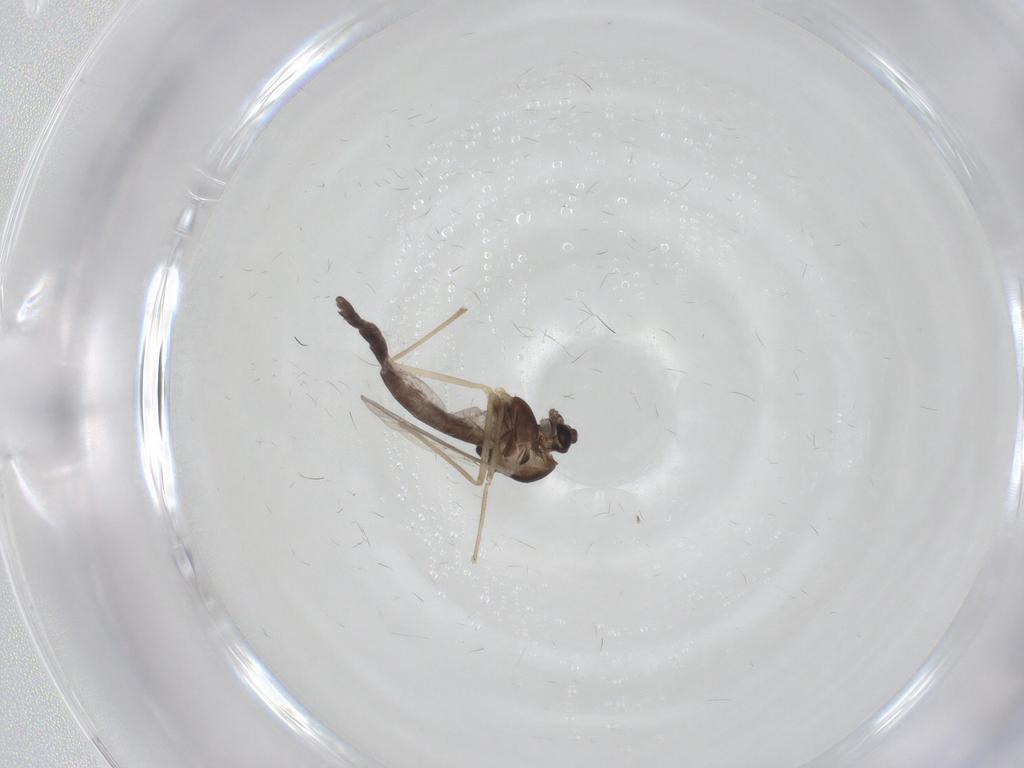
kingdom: Animalia
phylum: Arthropoda
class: Insecta
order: Diptera
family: Chironomidae
